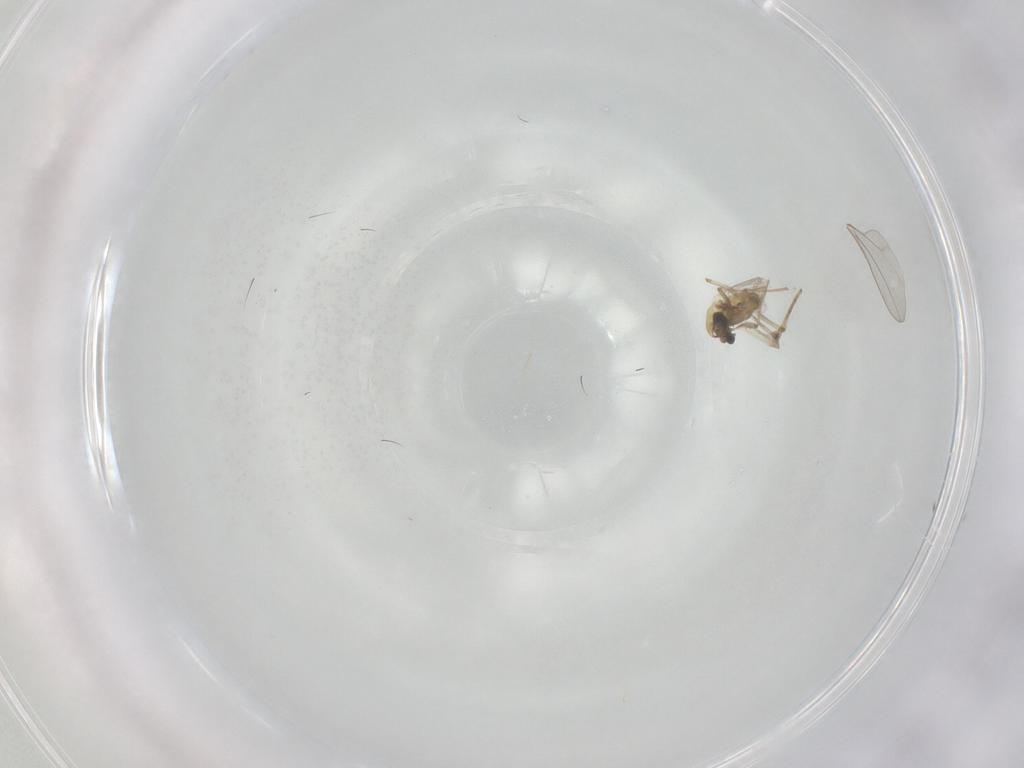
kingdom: Animalia
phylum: Arthropoda
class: Insecta
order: Diptera
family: Chironomidae
